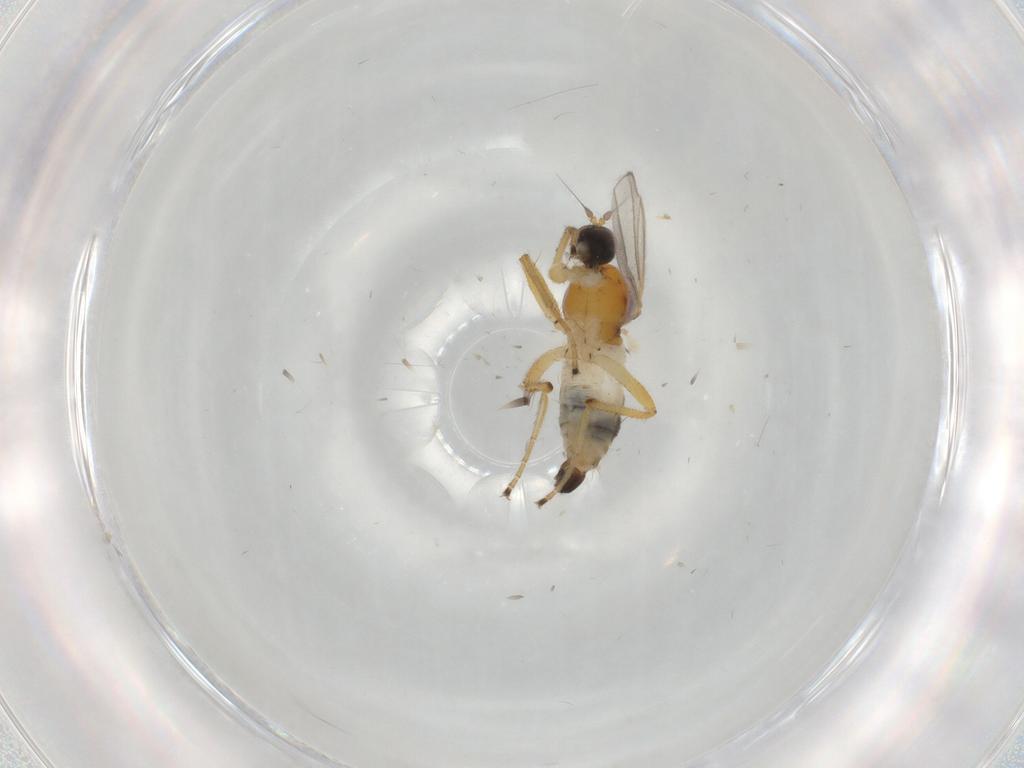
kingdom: Animalia
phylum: Arthropoda
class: Insecta
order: Diptera
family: Hybotidae
